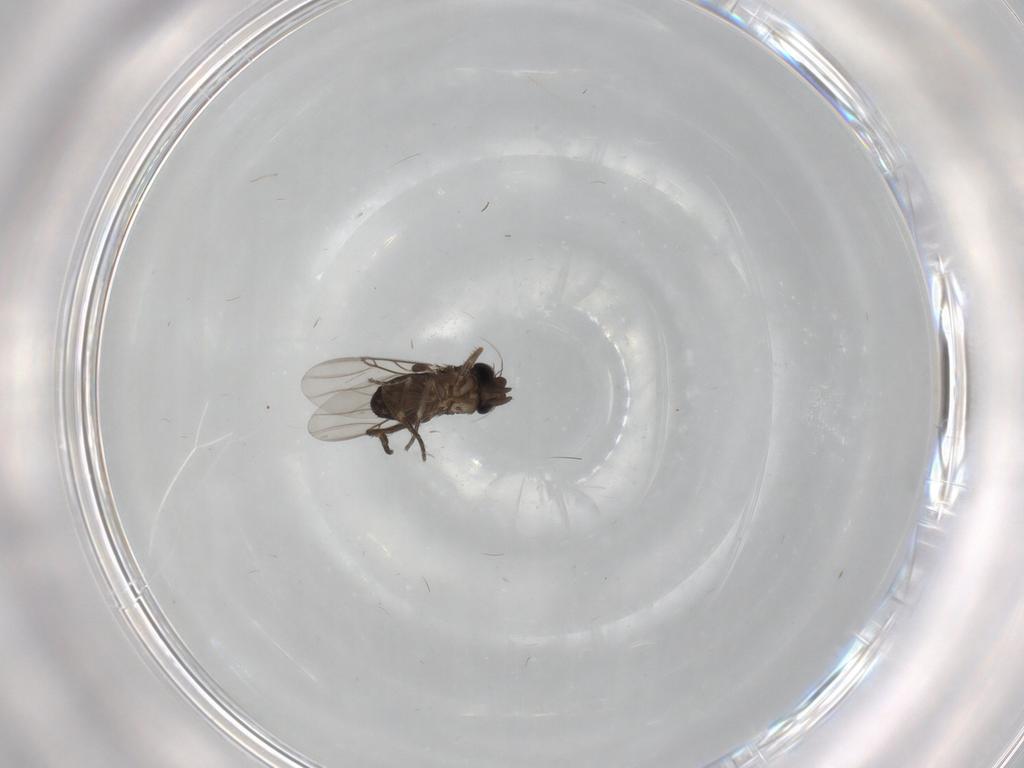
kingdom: Animalia
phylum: Arthropoda
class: Insecta
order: Diptera
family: Phoridae
